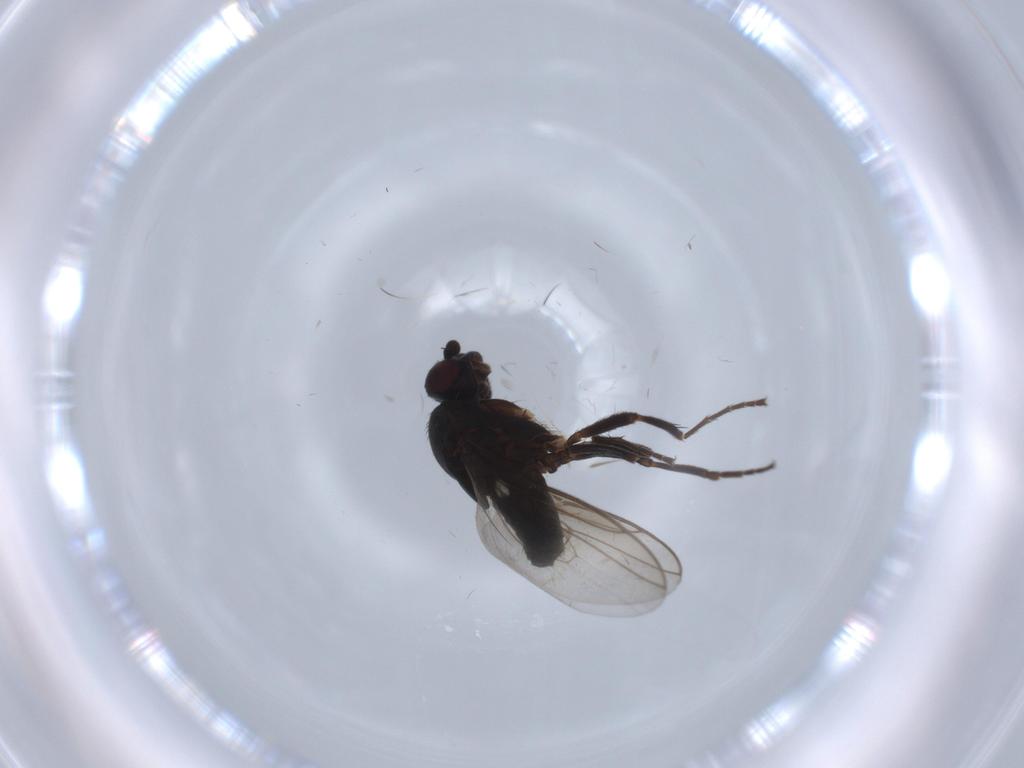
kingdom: Animalia
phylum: Arthropoda
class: Insecta
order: Diptera
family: Sphaeroceridae
